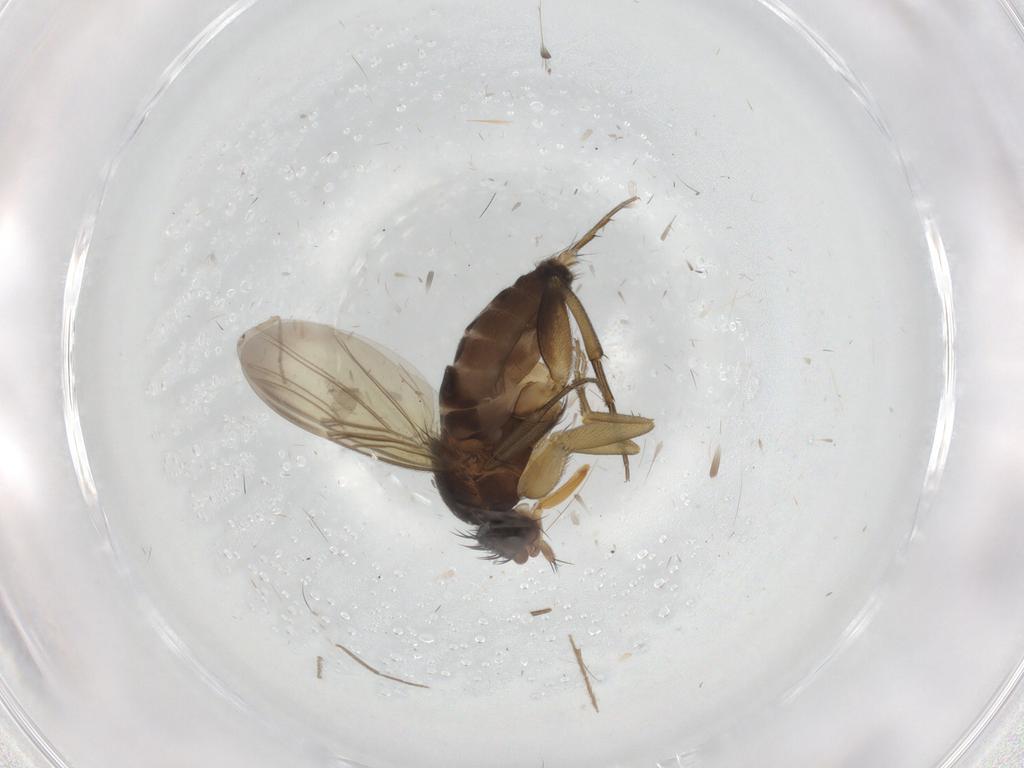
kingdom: Animalia
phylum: Arthropoda
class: Insecta
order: Diptera
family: Phoridae
